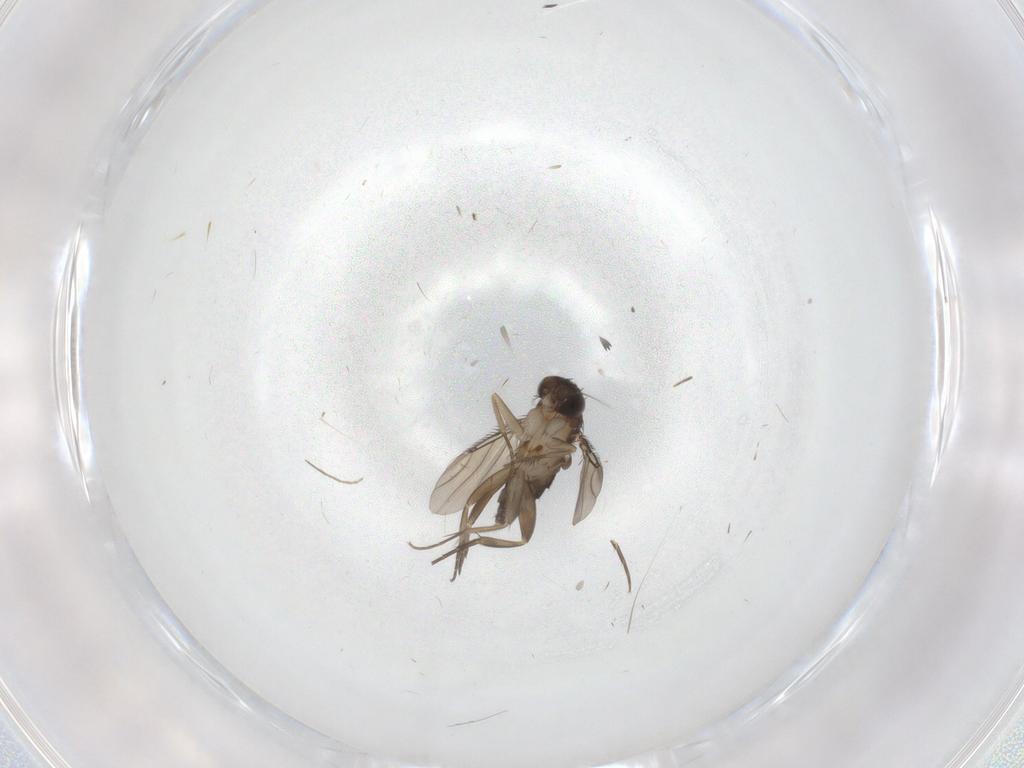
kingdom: Animalia
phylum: Arthropoda
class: Insecta
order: Diptera
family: Phoridae
